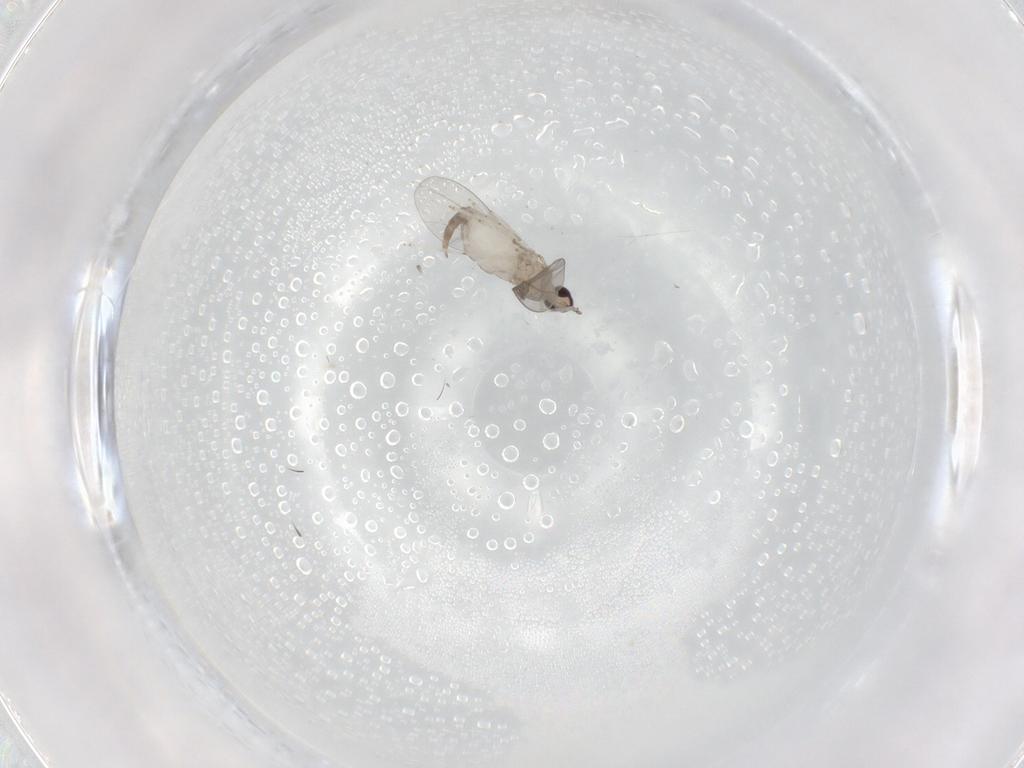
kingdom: Animalia
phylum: Arthropoda
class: Insecta
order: Diptera
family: Cecidomyiidae
